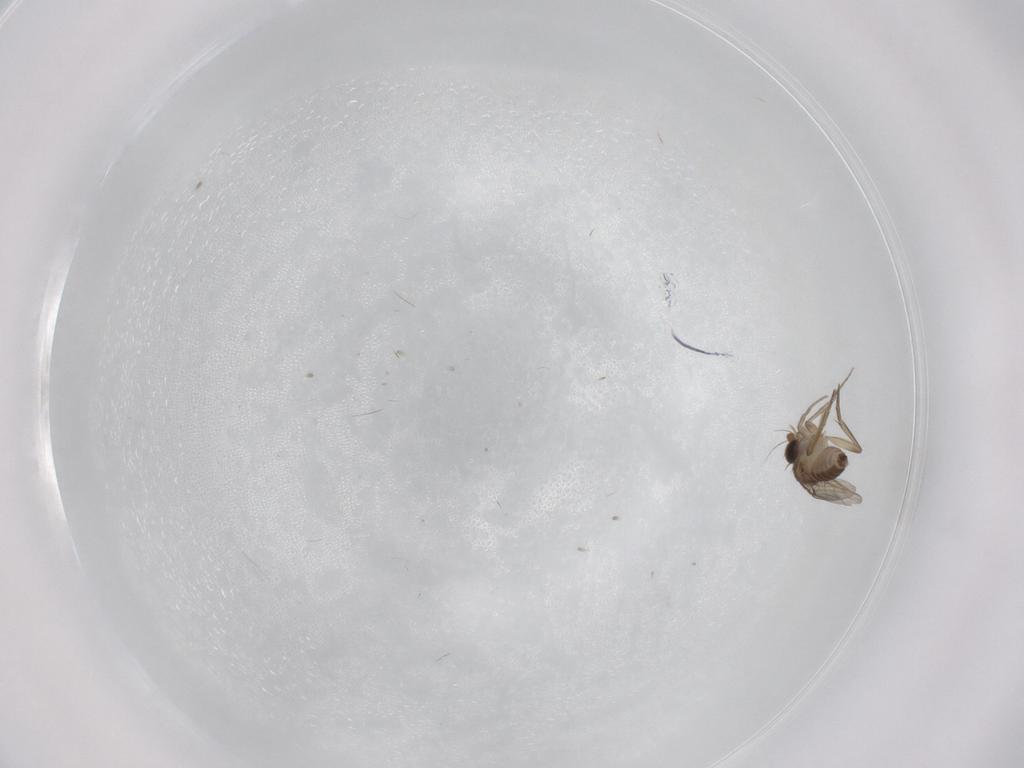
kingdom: Animalia
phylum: Arthropoda
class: Insecta
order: Diptera
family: Phoridae
